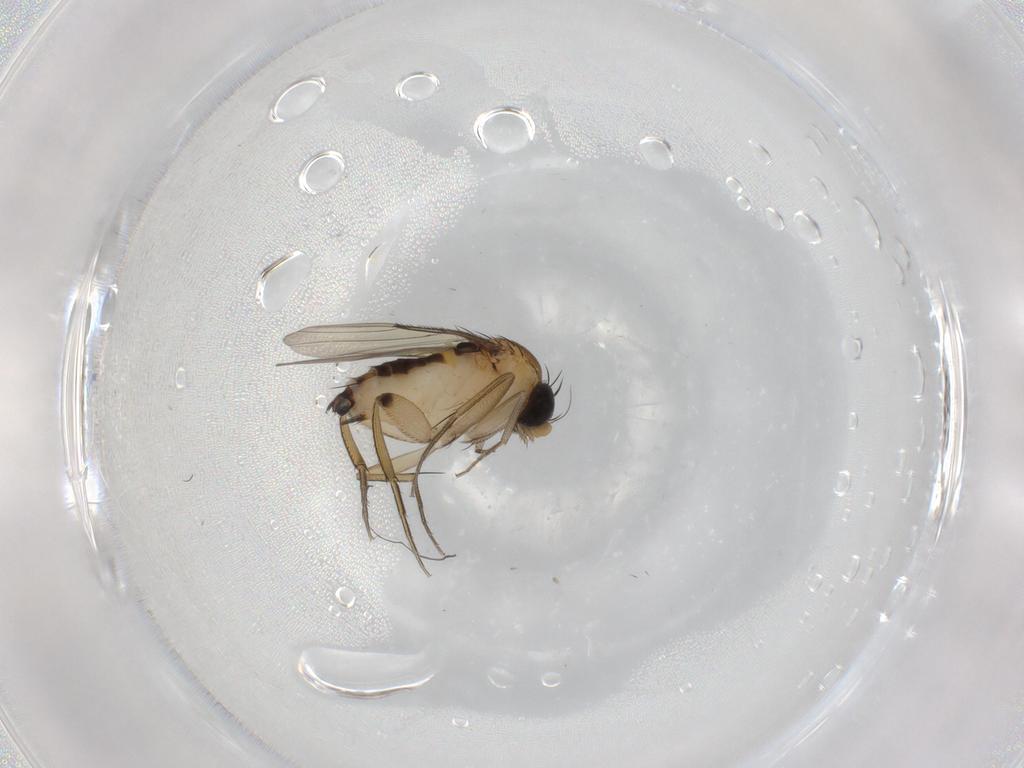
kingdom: Animalia
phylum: Arthropoda
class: Insecta
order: Diptera
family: Phoridae
